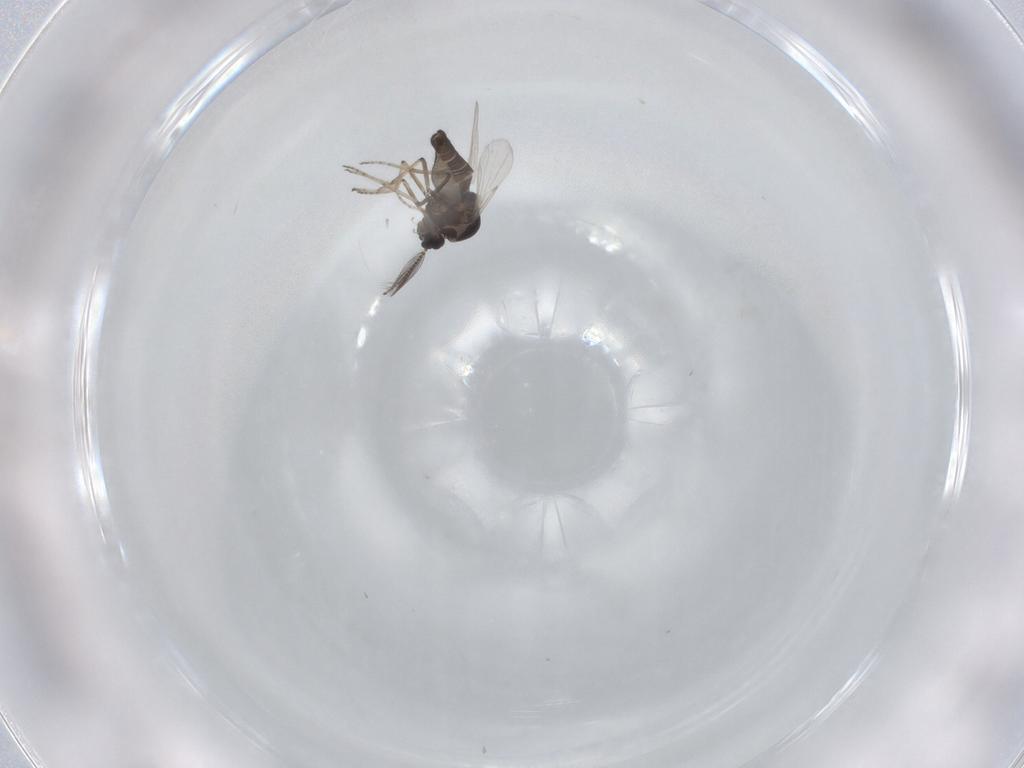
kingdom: Animalia
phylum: Arthropoda
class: Insecta
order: Diptera
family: Ceratopogonidae
